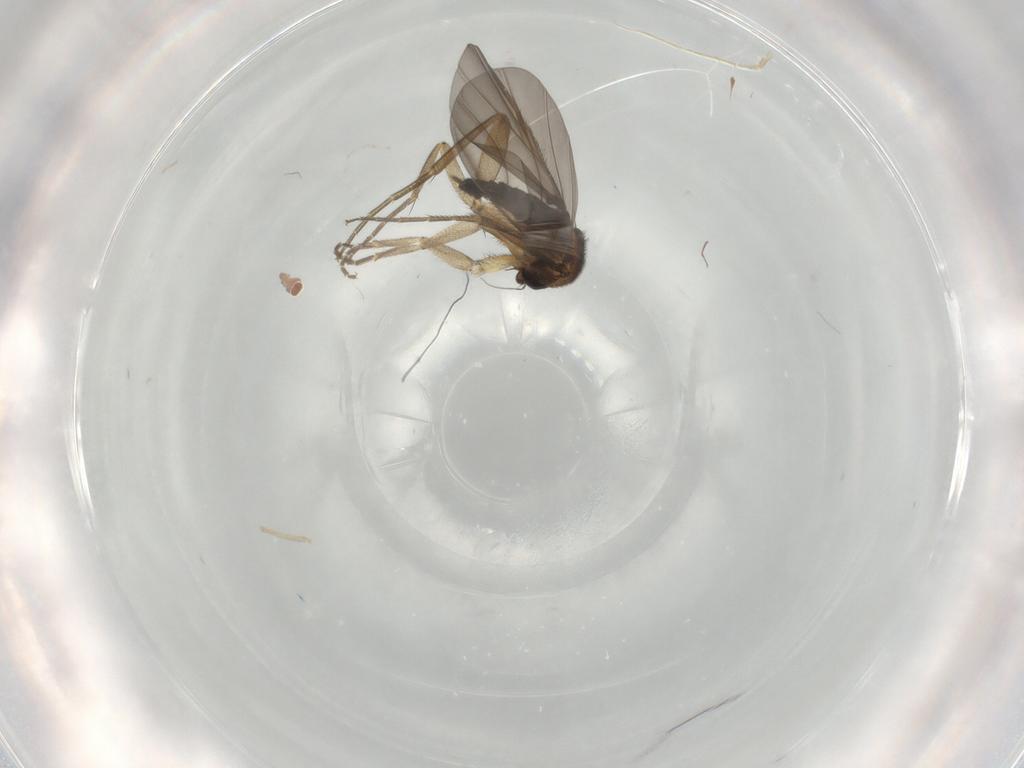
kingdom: Animalia
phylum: Arthropoda
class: Insecta
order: Diptera
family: Phoridae
